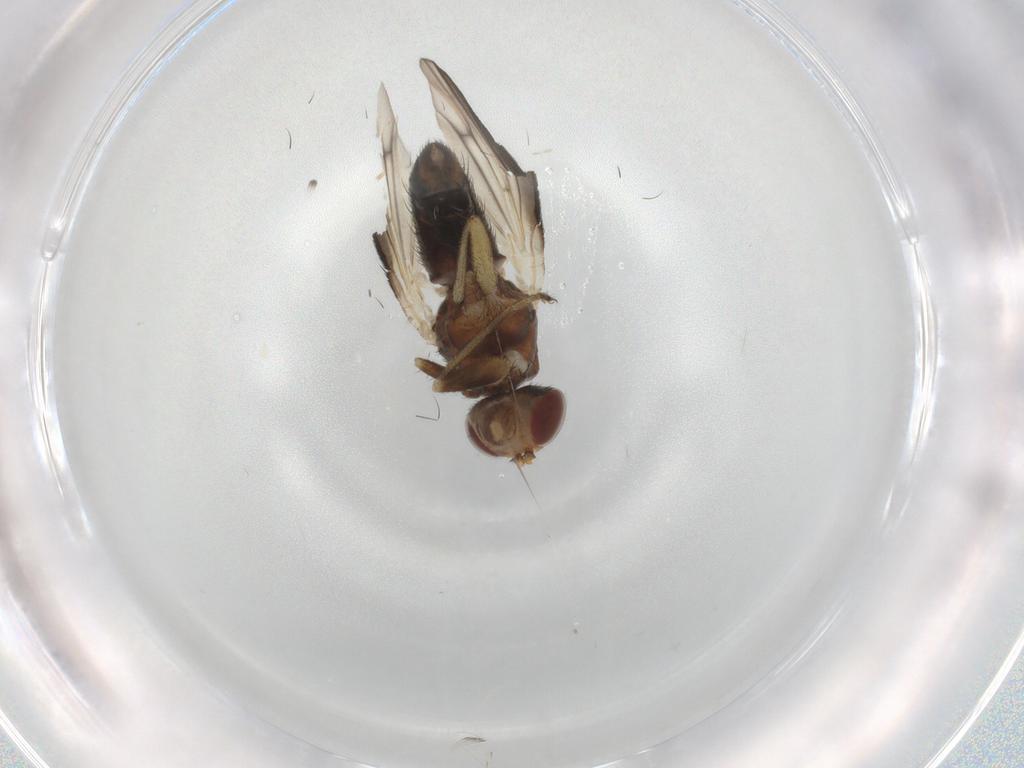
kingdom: Animalia
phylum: Arthropoda
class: Insecta
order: Diptera
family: Heleomyzidae
